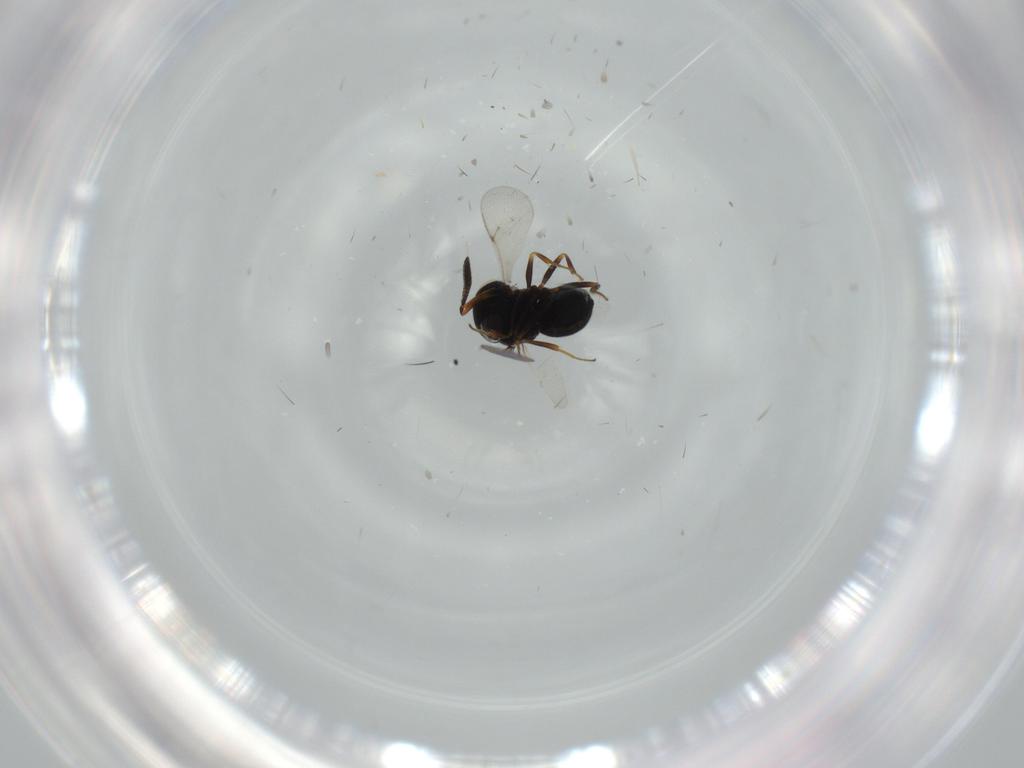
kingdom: Animalia
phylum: Arthropoda
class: Insecta
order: Hymenoptera
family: Scelionidae
